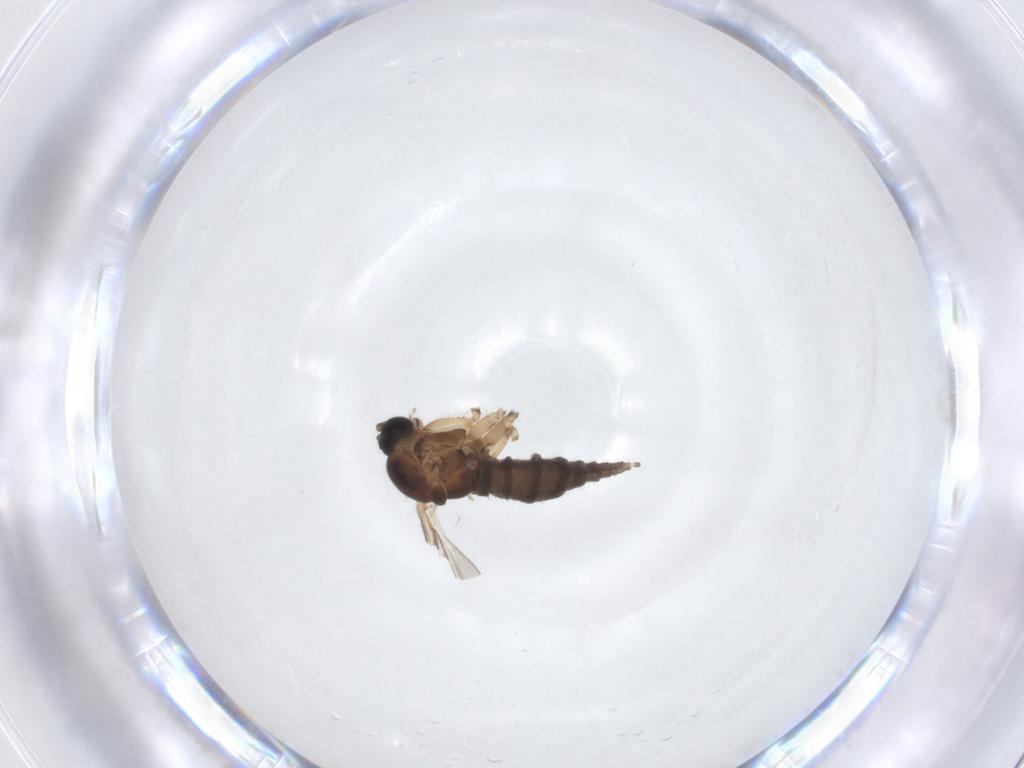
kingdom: Animalia
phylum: Arthropoda
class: Insecta
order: Diptera
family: Sciaridae
